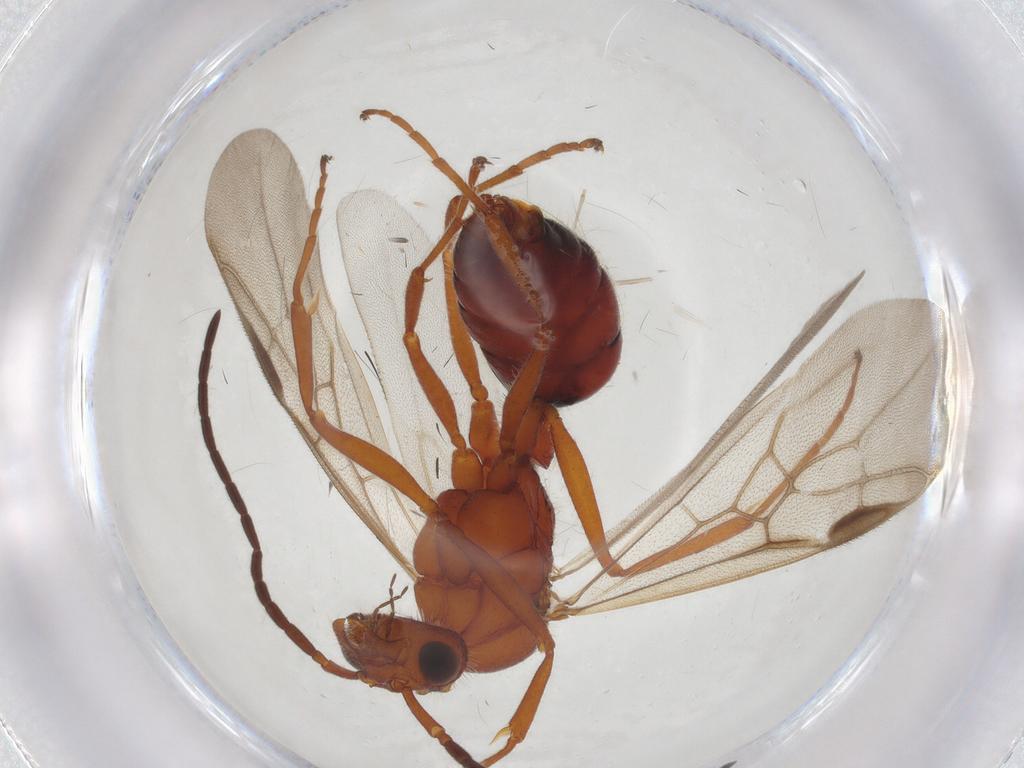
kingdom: Animalia
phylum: Arthropoda
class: Insecta
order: Hymenoptera
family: Formicidae
